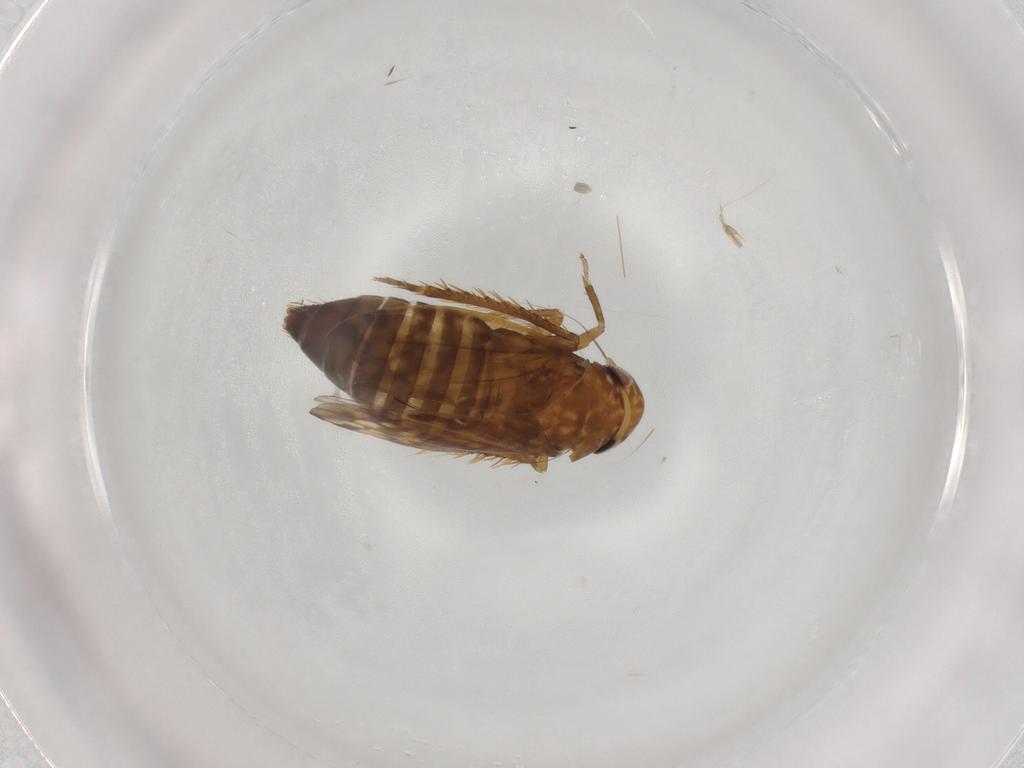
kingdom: Animalia
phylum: Arthropoda
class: Insecta
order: Hemiptera
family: Cicadellidae
